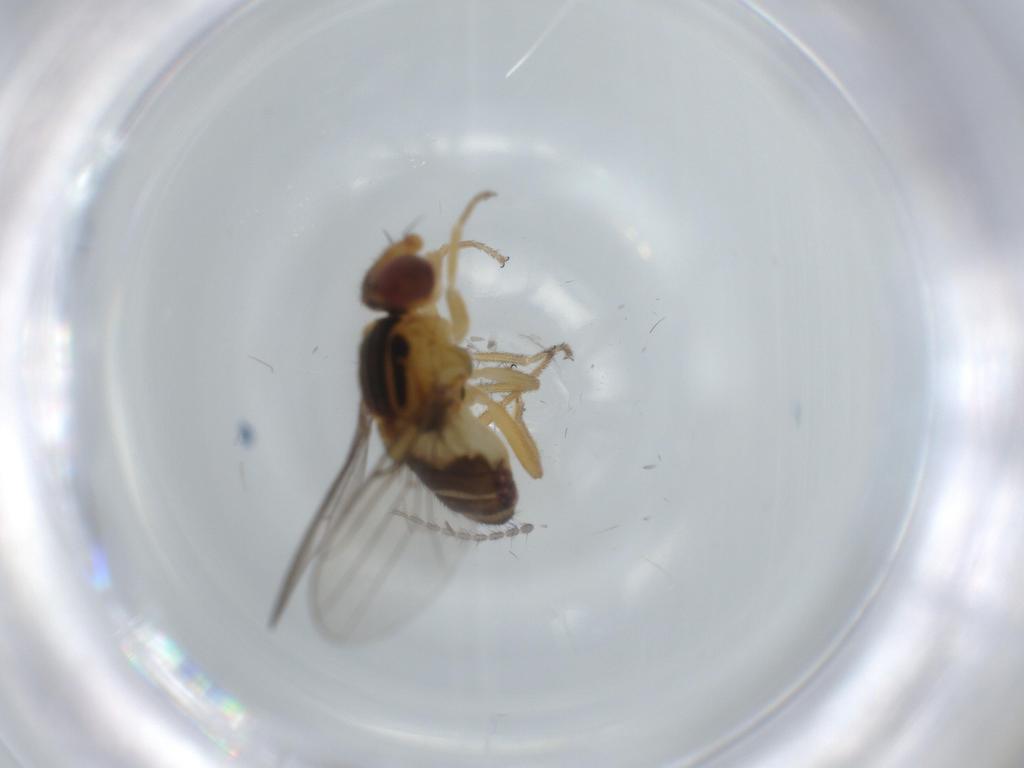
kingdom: Animalia
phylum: Arthropoda
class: Insecta
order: Diptera
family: Chloropidae
